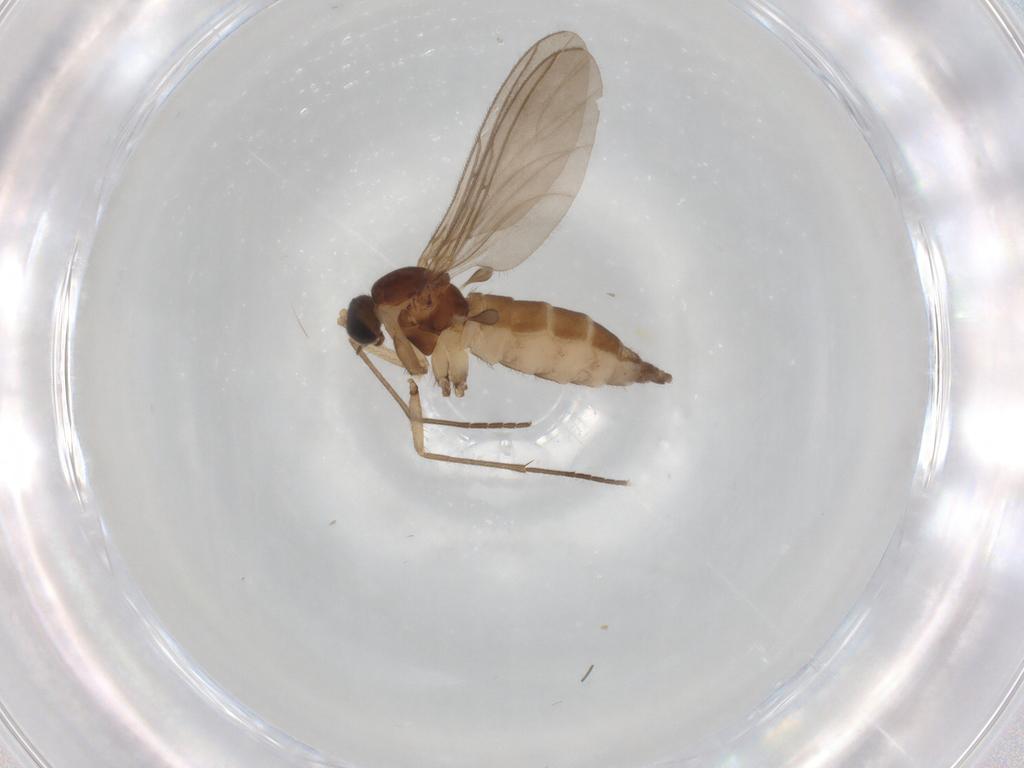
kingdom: Animalia
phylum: Arthropoda
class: Insecta
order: Diptera
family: Sciaridae
